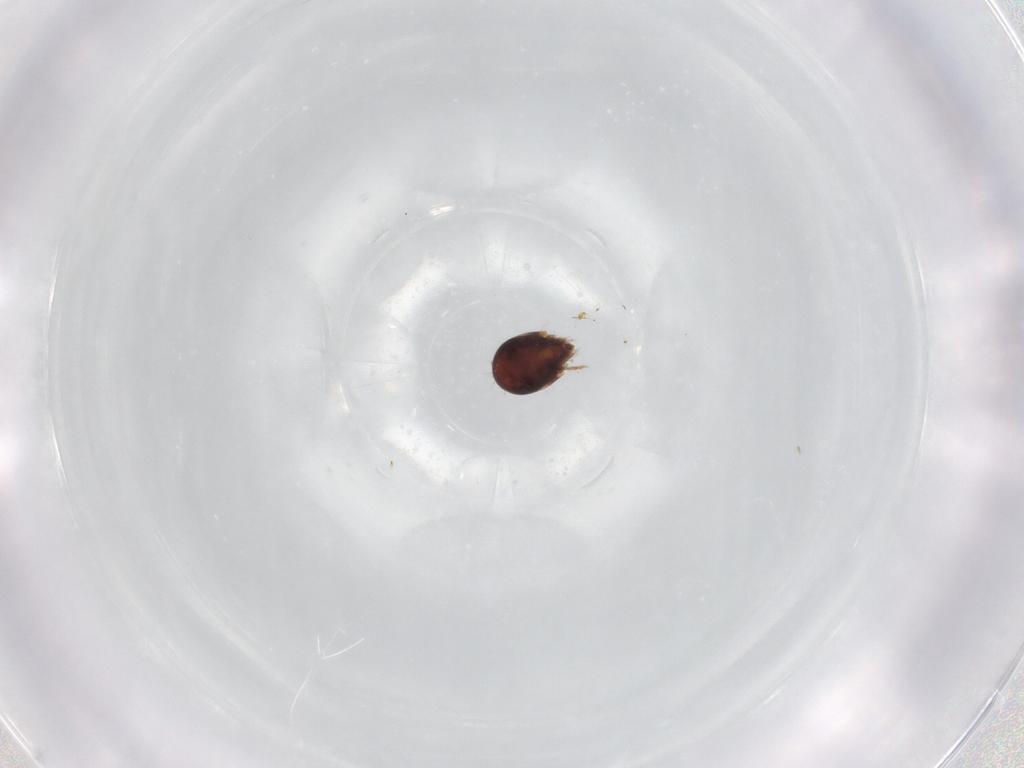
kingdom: Animalia
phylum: Arthropoda
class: Arachnida
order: Sarcoptiformes
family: Humerobatidae
